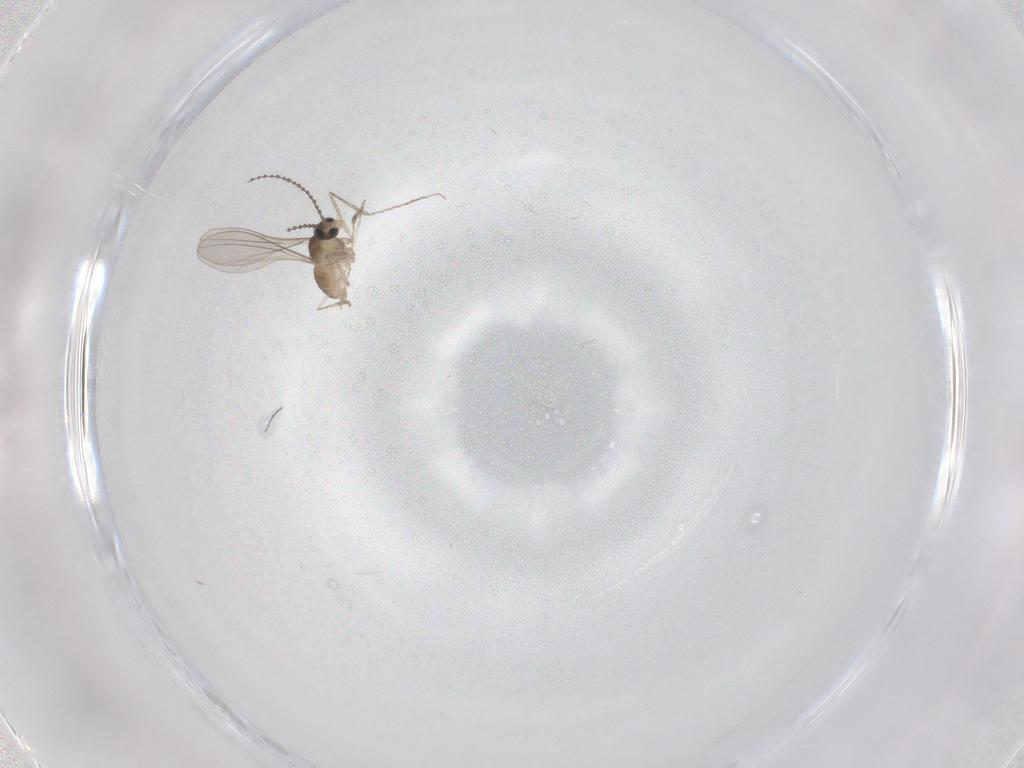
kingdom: Animalia
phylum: Arthropoda
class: Insecta
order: Diptera
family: Cecidomyiidae
